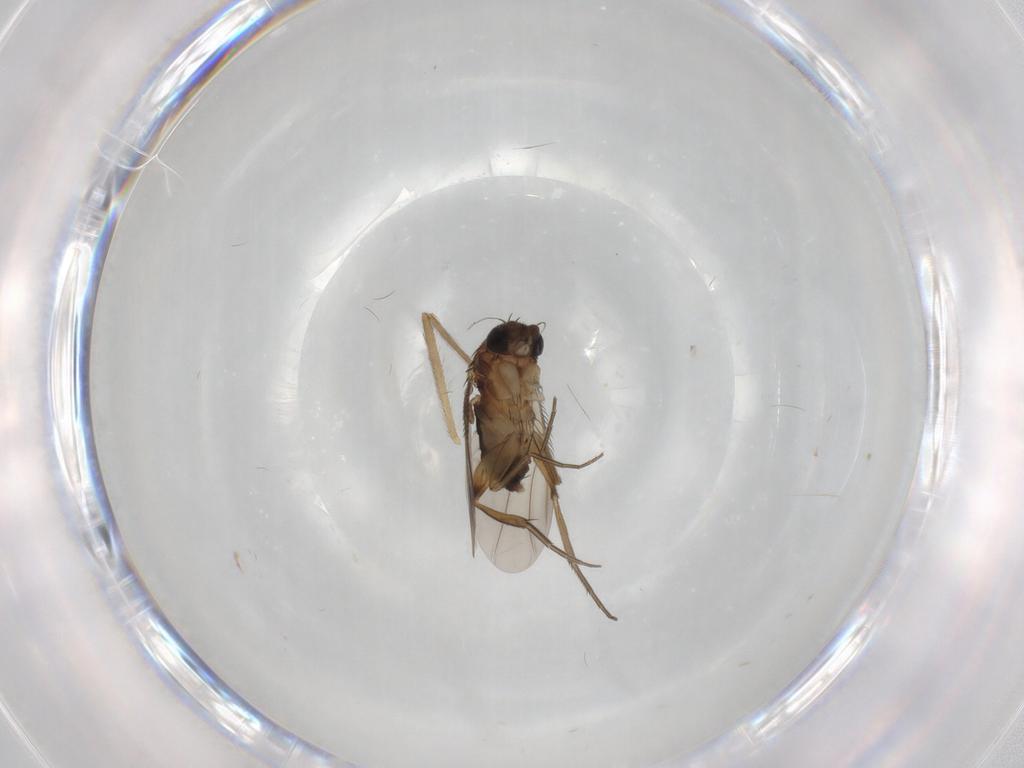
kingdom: Animalia
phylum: Arthropoda
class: Insecta
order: Diptera
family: Phoridae
